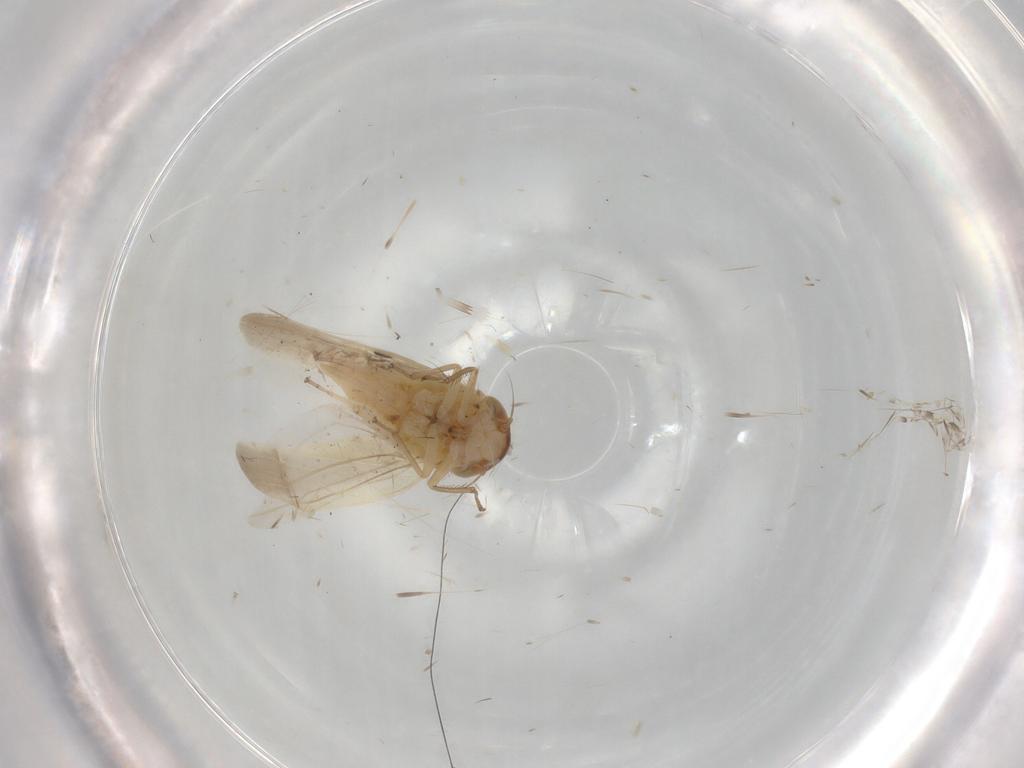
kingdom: Animalia
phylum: Arthropoda
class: Insecta
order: Hemiptera
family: Cicadellidae
